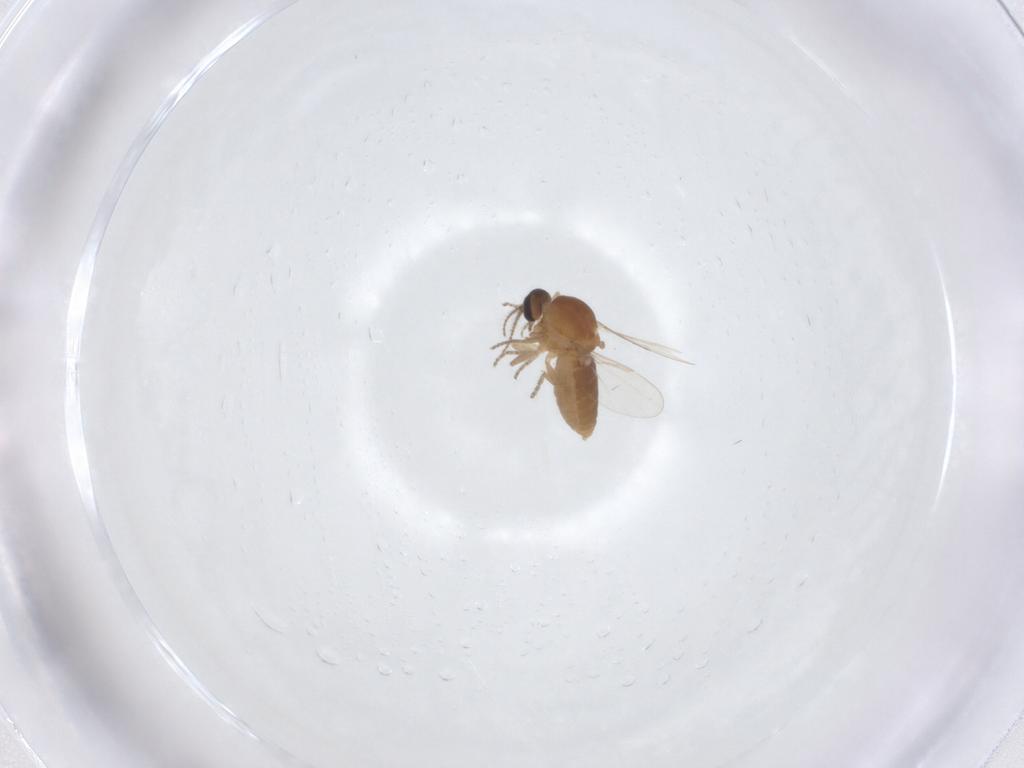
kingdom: Animalia
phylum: Arthropoda
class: Insecta
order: Diptera
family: Ceratopogonidae
